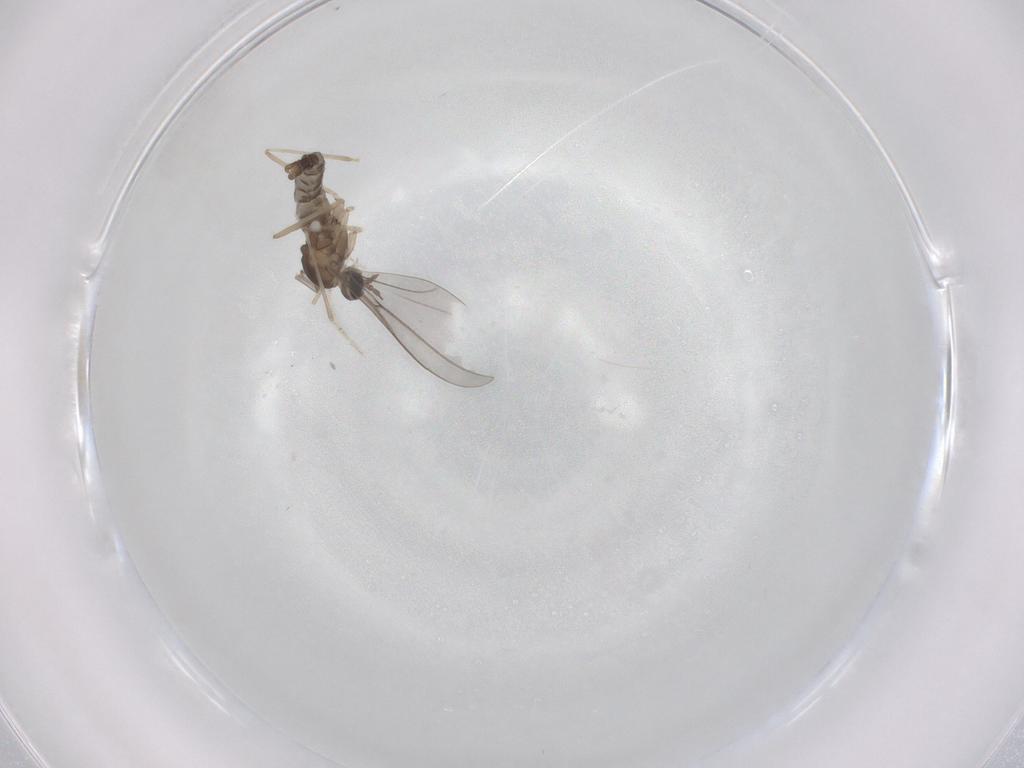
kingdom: Animalia
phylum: Arthropoda
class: Insecta
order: Diptera
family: Cecidomyiidae
